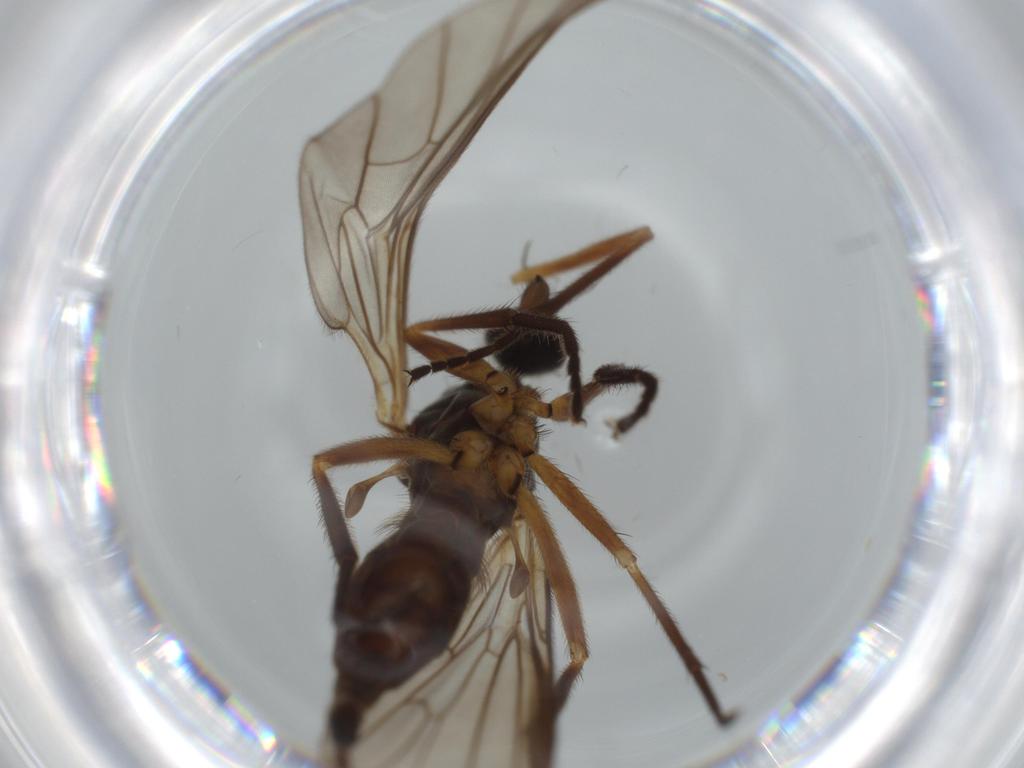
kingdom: Animalia
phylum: Arthropoda
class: Insecta
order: Diptera
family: Empididae
